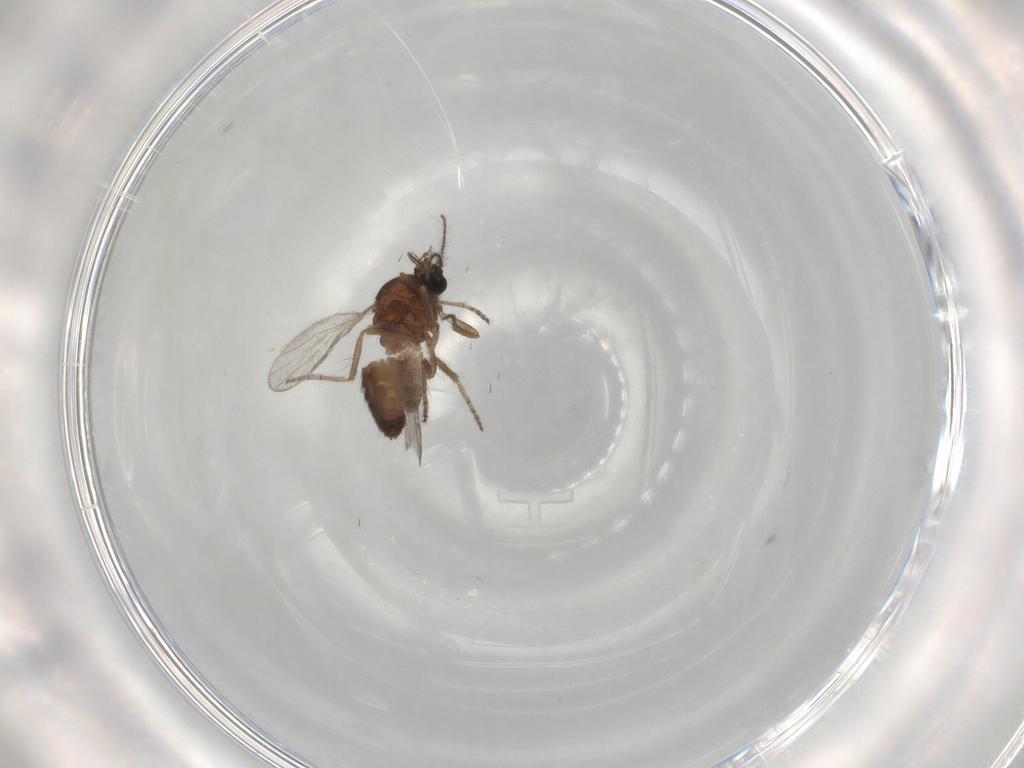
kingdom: Animalia
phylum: Arthropoda
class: Insecta
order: Diptera
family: Ceratopogonidae
